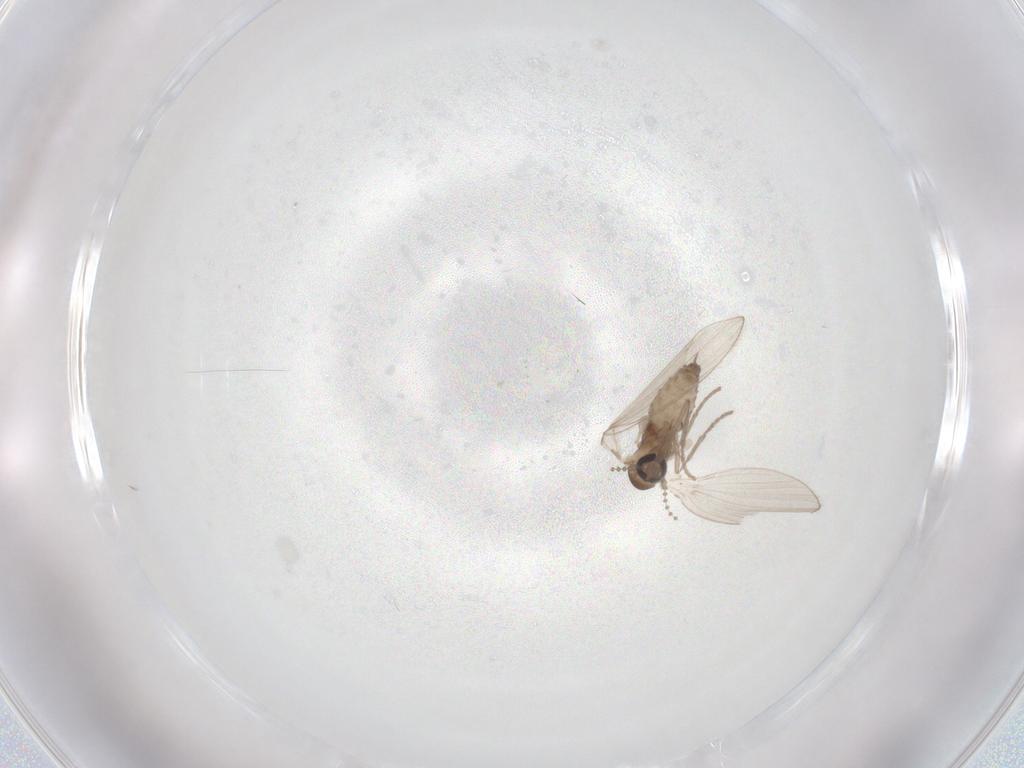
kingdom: Animalia
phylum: Arthropoda
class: Insecta
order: Diptera
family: Psychodidae
